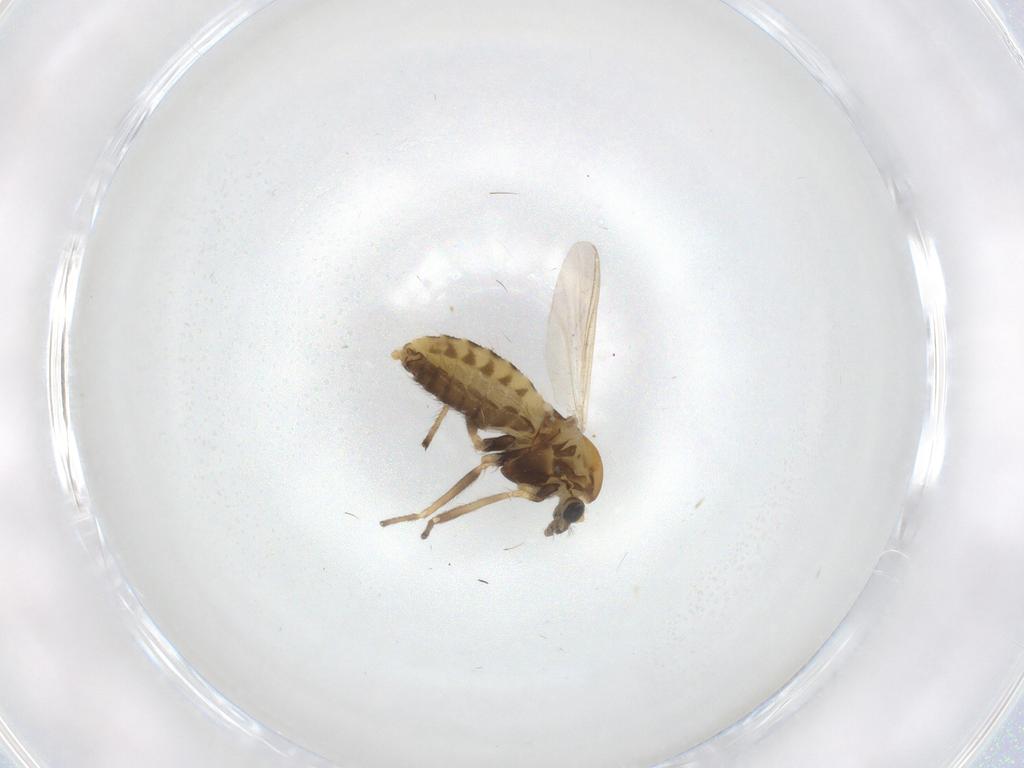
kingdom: Animalia
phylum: Arthropoda
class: Insecta
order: Diptera
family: Chironomidae
